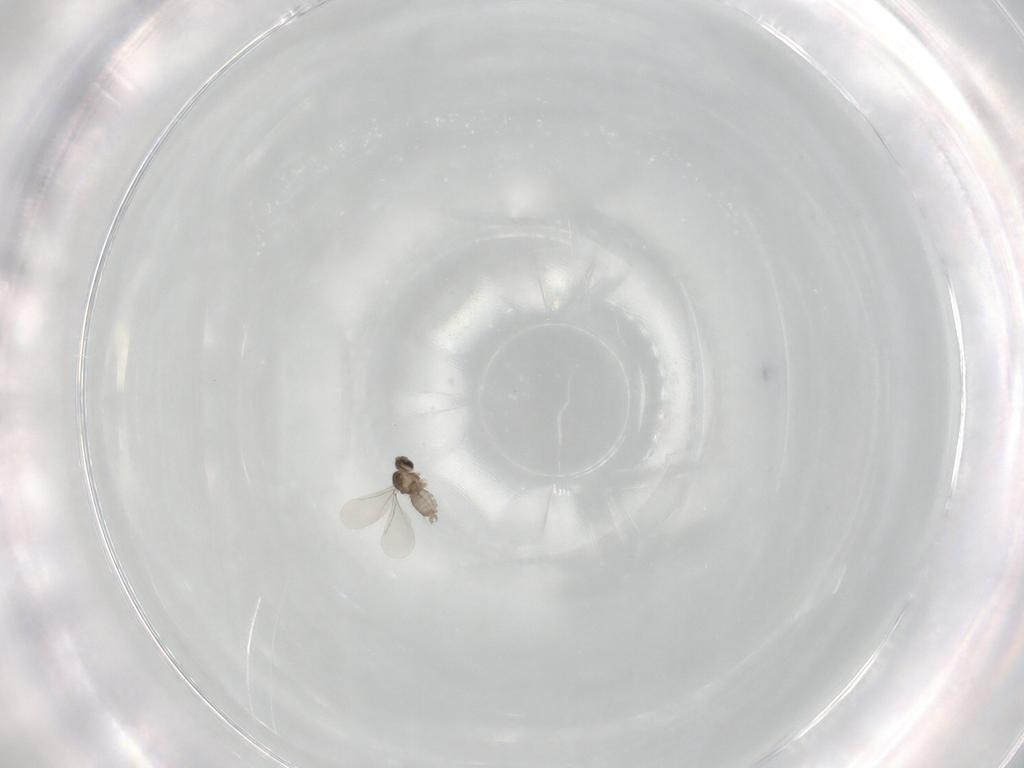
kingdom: Animalia
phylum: Arthropoda
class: Insecta
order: Diptera
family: Cecidomyiidae
